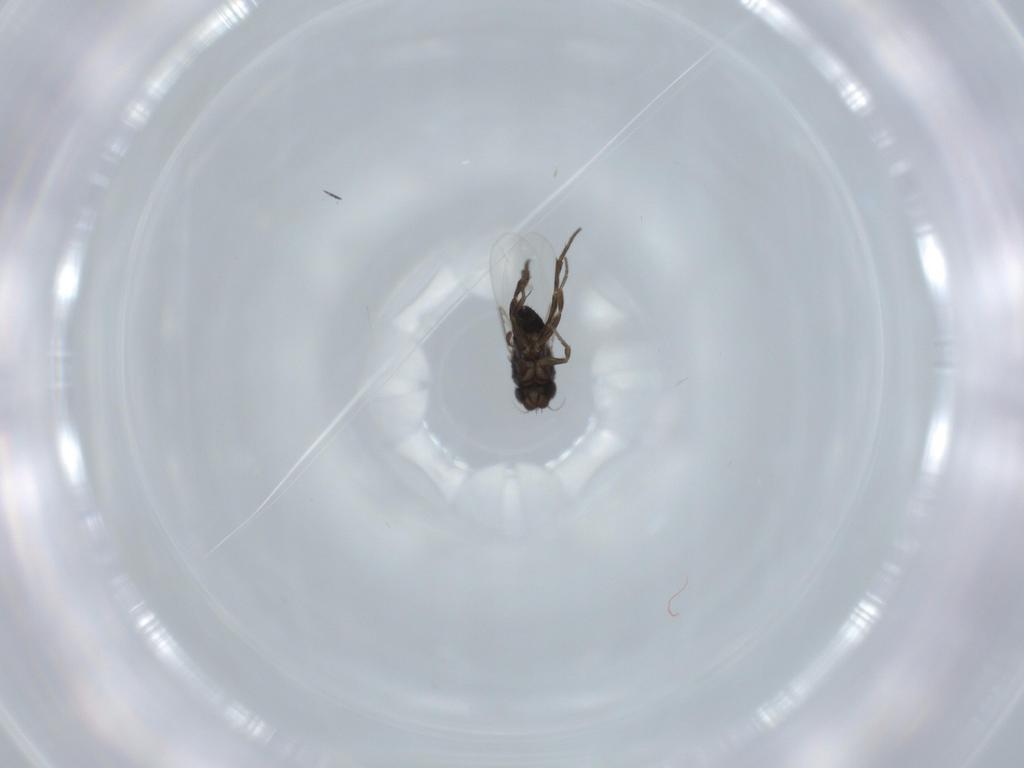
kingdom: Animalia
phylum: Arthropoda
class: Insecta
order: Diptera
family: Phoridae
